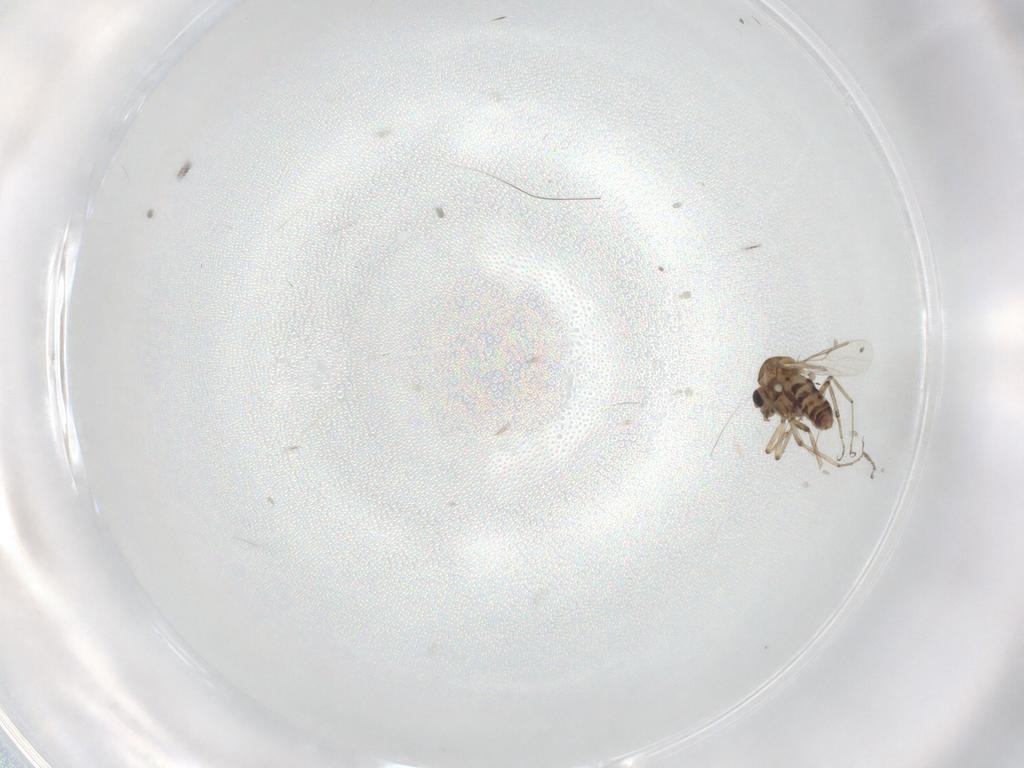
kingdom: Animalia
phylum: Arthropoda
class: Insecta
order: Diptera
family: Ceratopogonidae
